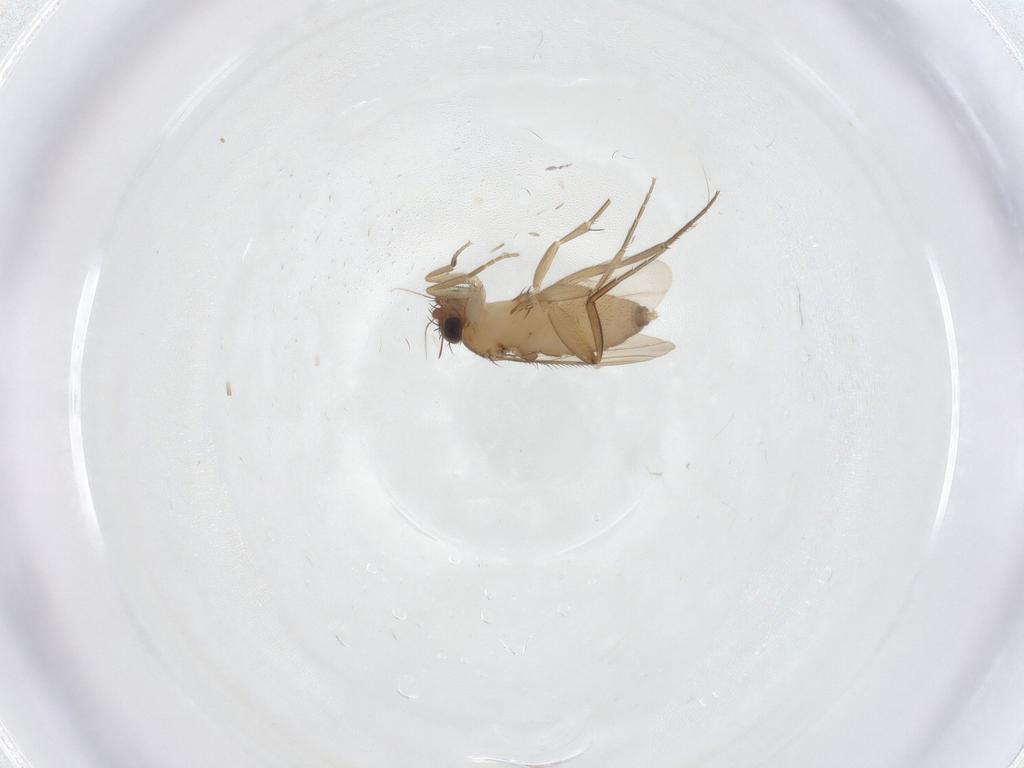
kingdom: Animalia
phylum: Arthropoda
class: Insecta
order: Diptera
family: Phoridae
